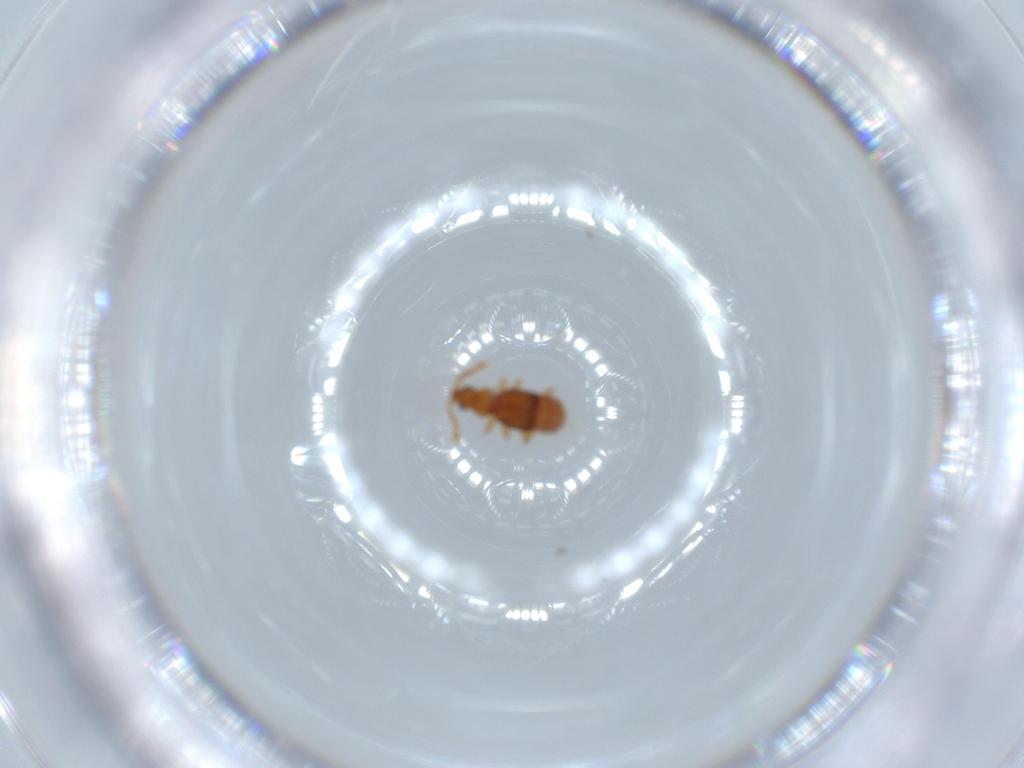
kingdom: Animalia
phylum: Arthropoda
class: Insecta
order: Coleoptera
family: Staphylinidae
